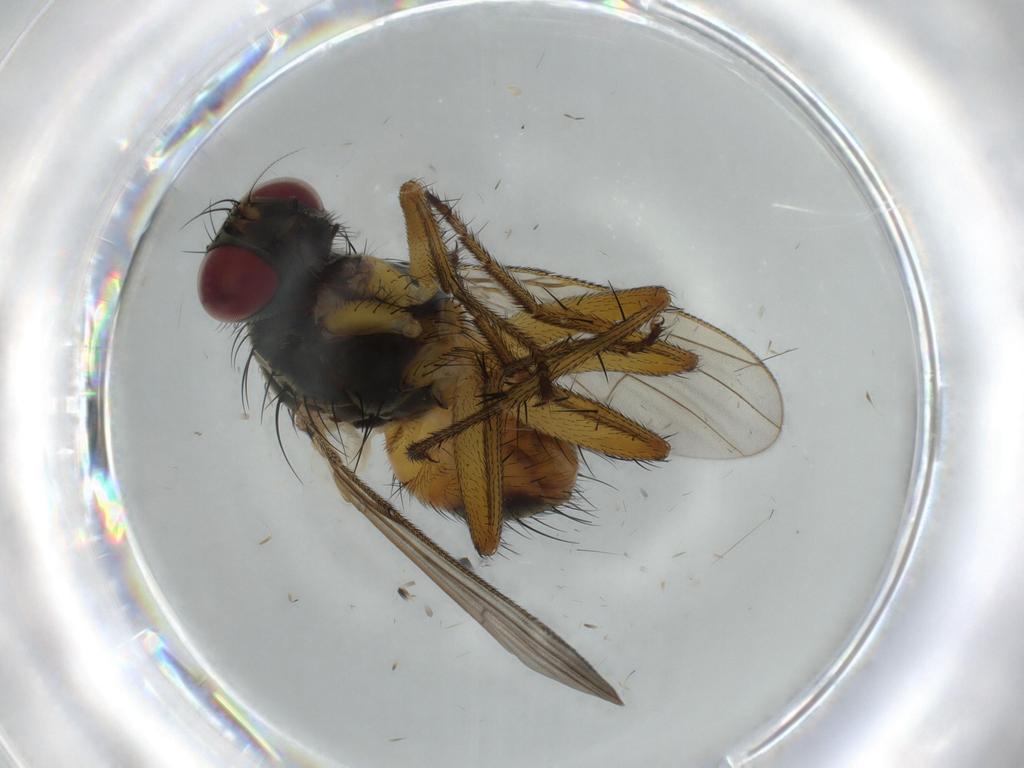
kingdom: Animalia
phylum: Arthropoda
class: Insecta
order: Diptera
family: Muscidae
